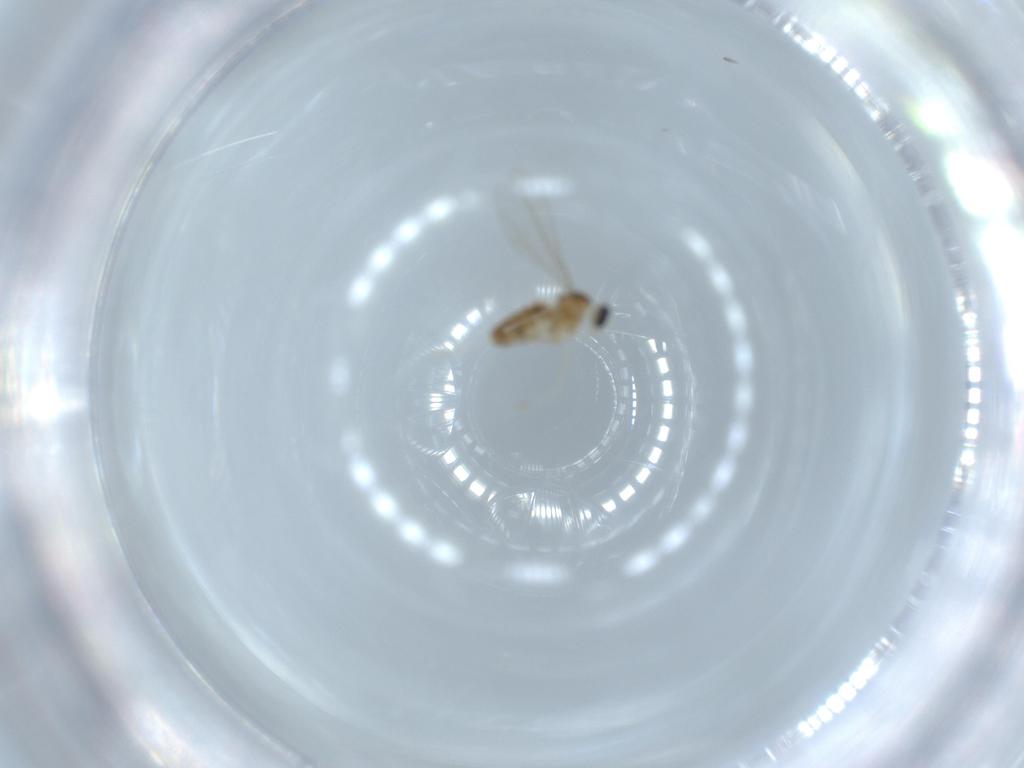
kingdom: Animalia
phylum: Arthropoda
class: Insecta
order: Diptera
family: Cecidomyiidae
